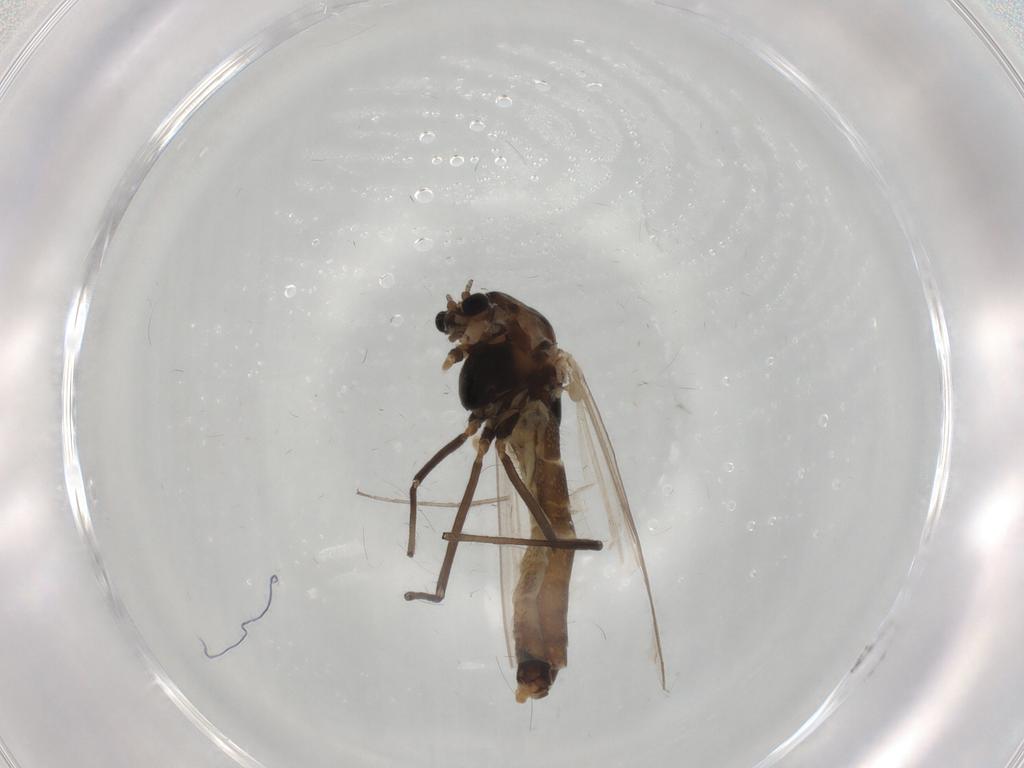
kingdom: Animalia
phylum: Arthropoda
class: Insecta
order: Diptera
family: Chironomidae
